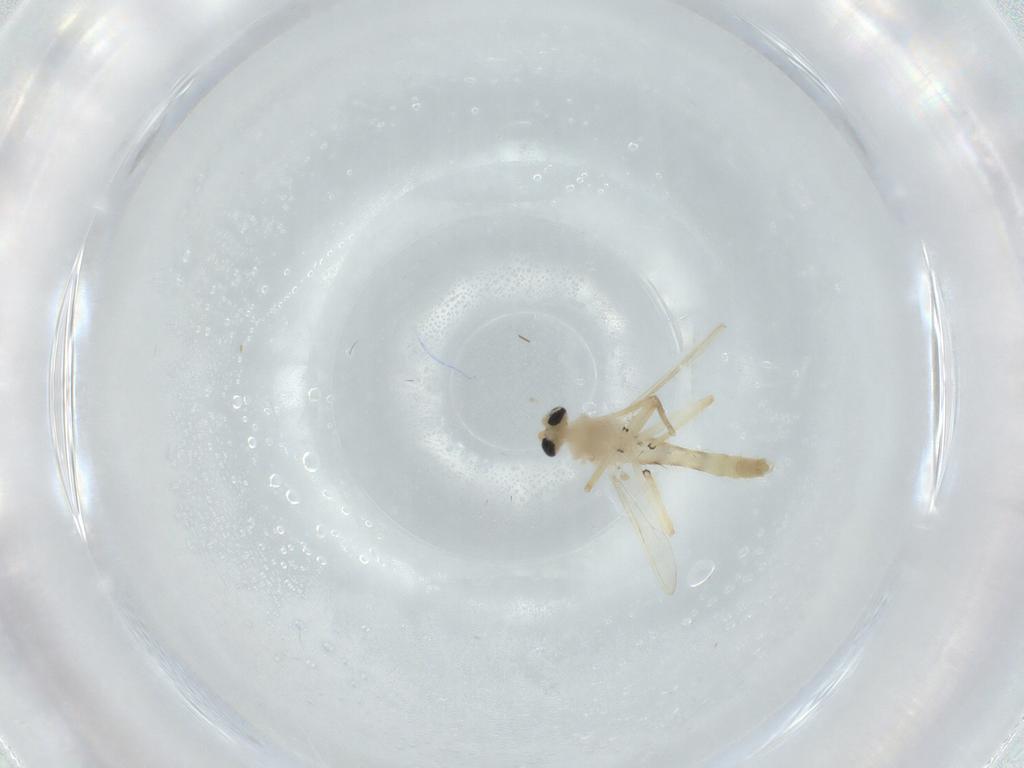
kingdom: Animalia
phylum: Arthropoda
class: Insecta
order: Diptera
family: Chironomidae
